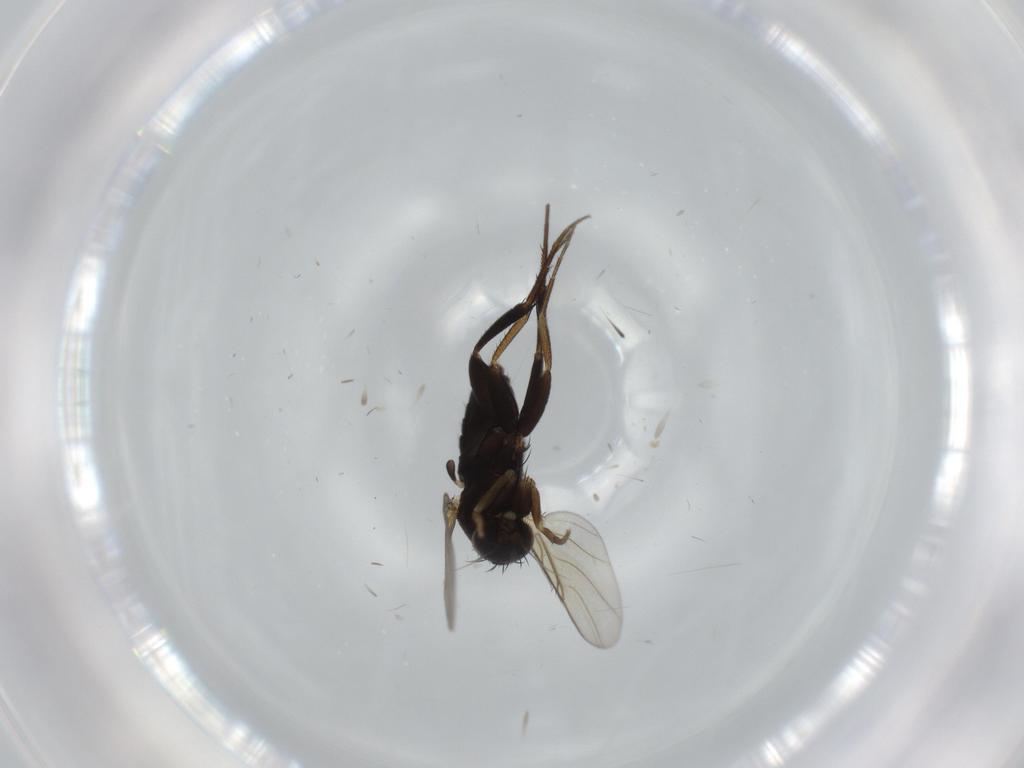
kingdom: Animalia
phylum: Arthropoda
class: Insecta
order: Diptera
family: Phoridae
